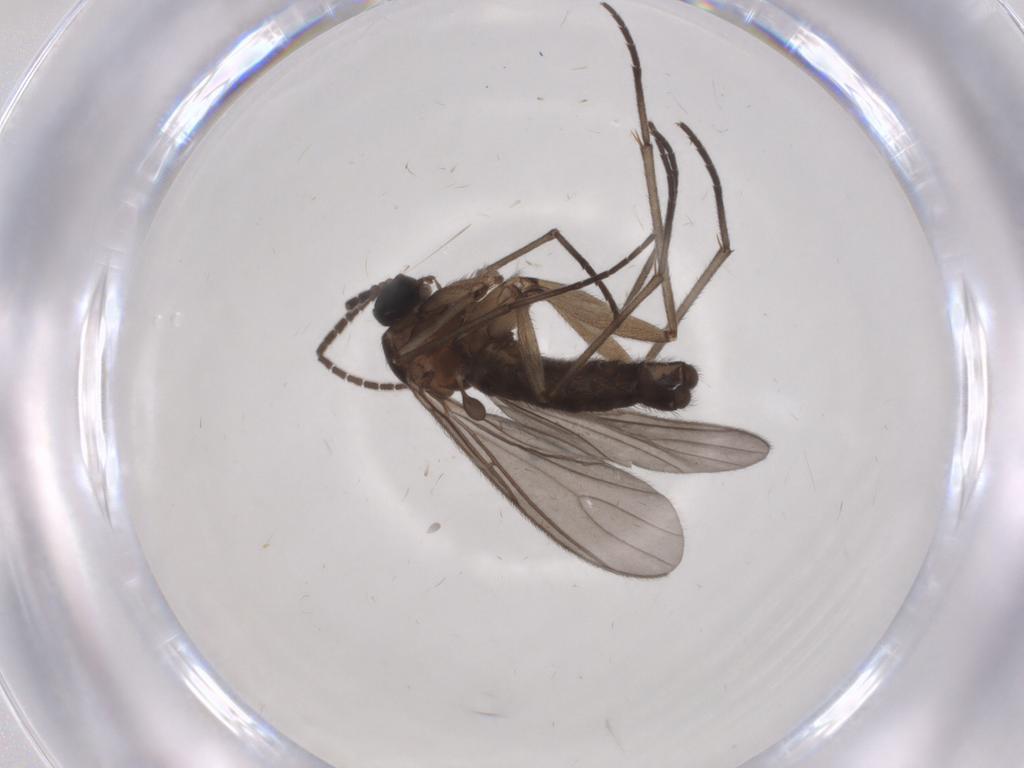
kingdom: Animalia
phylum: Arthropoda
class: Insecta
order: Diptera
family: Sciaridae
